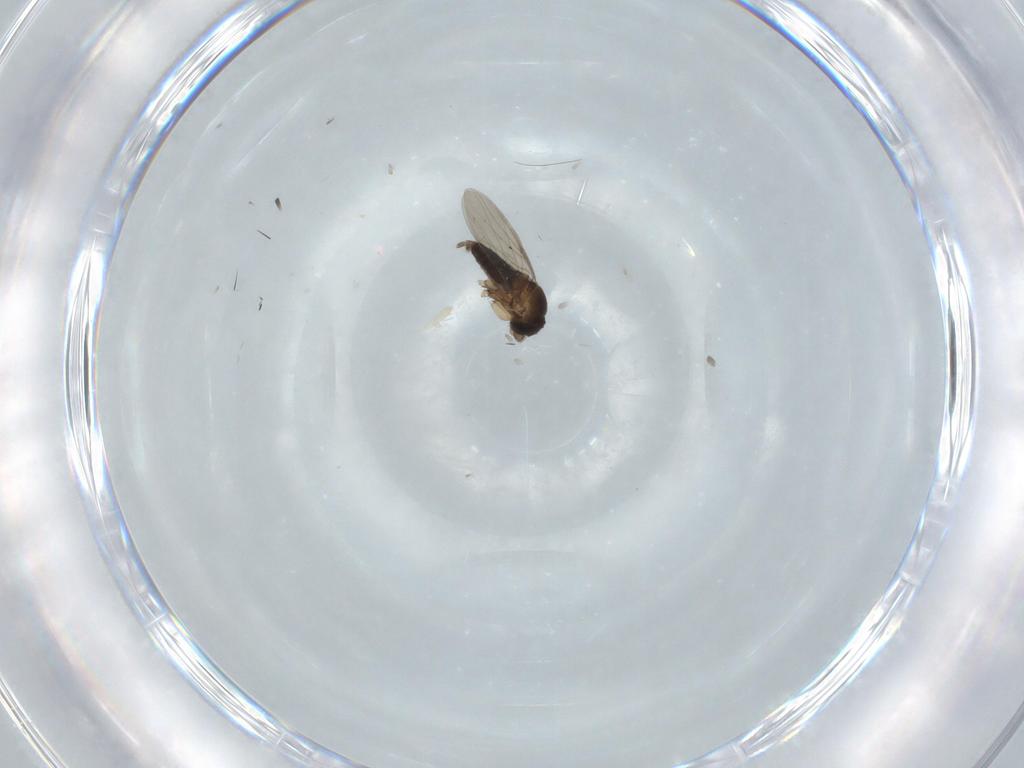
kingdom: Animalia
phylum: Arthropoda
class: Insecta
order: Diptera
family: Phoridae
